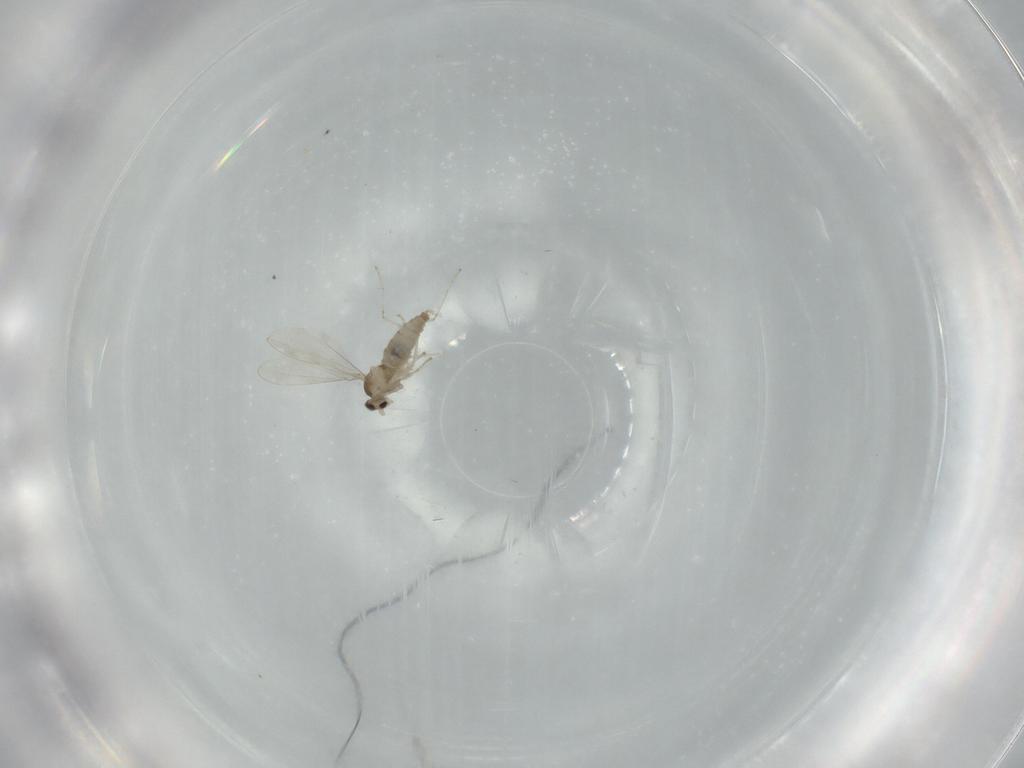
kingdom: Animalia
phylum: Arthropoda
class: Insecta
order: Diptera
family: Cecidomyiidae
